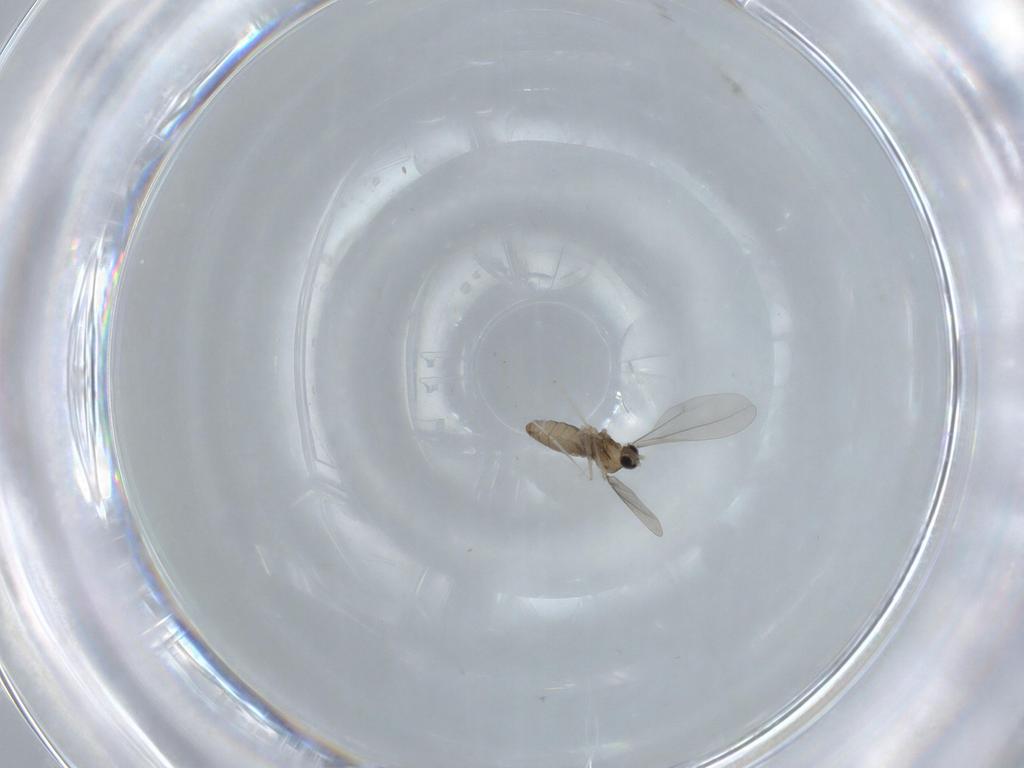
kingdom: Animalia
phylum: Arthropoda
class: Insecta
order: Diptera
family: Cecidomyiidae
